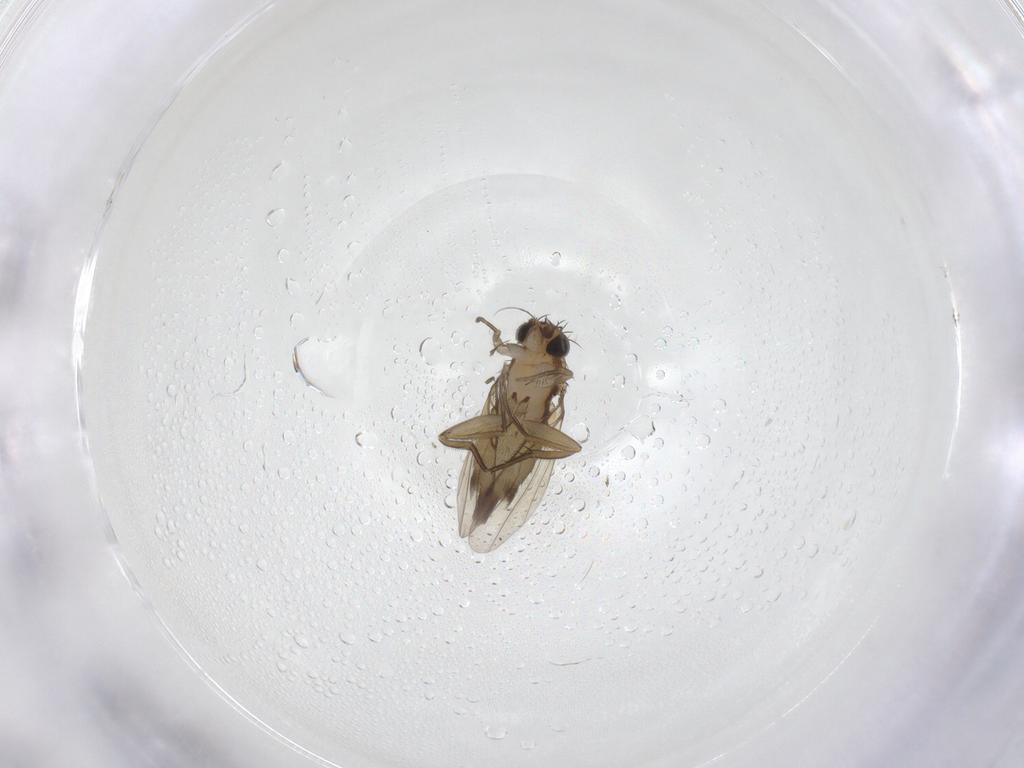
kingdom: Animalia
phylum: Arthropoda
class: Insecta
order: Diptera
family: Phoridae
